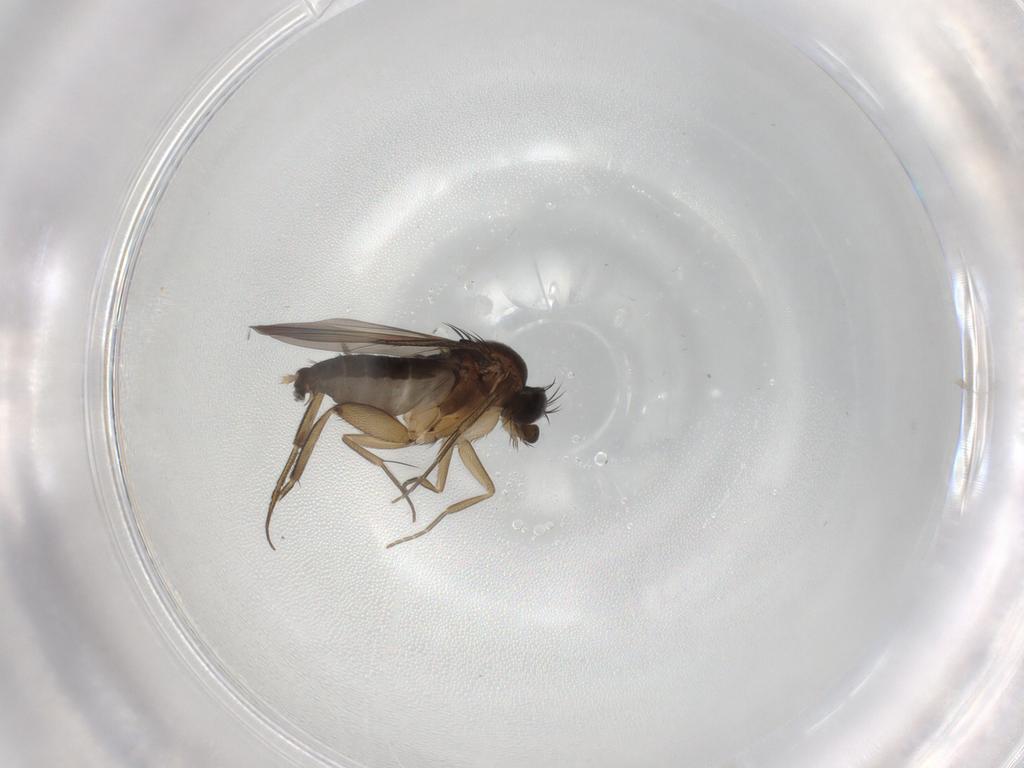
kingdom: Animalia
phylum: Arthropoda
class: Insecta
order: Diptera
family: Phoridae
